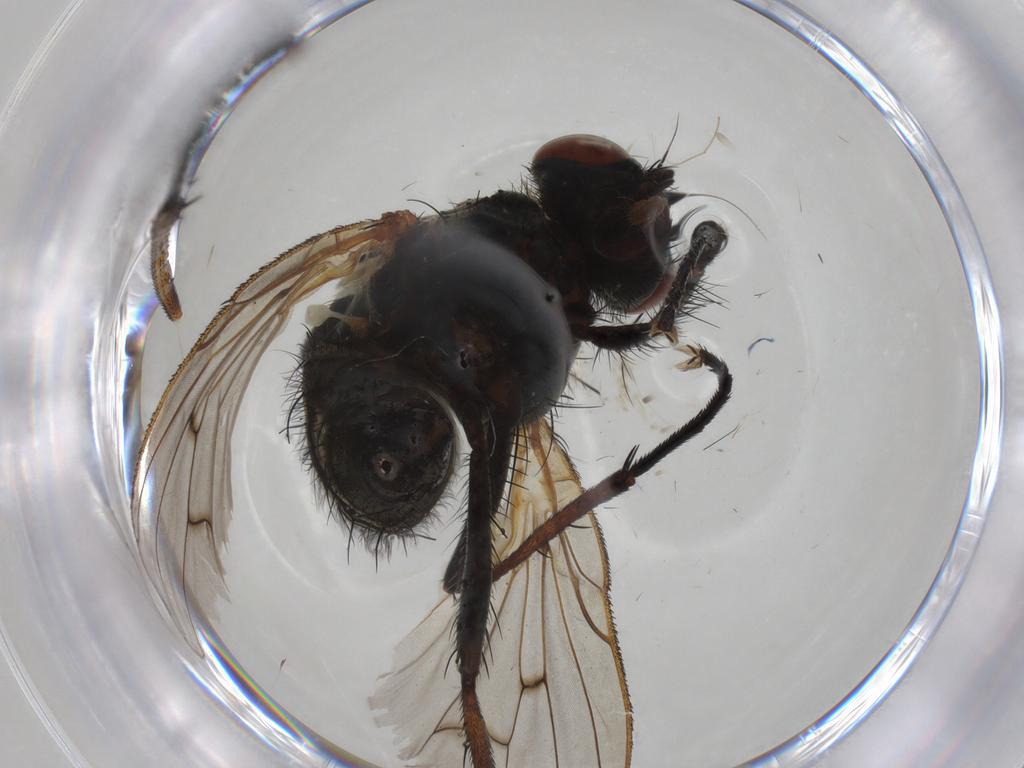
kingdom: Animalia
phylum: Arthropoda
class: Insecta
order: Diptera
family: Anthomyiidae
